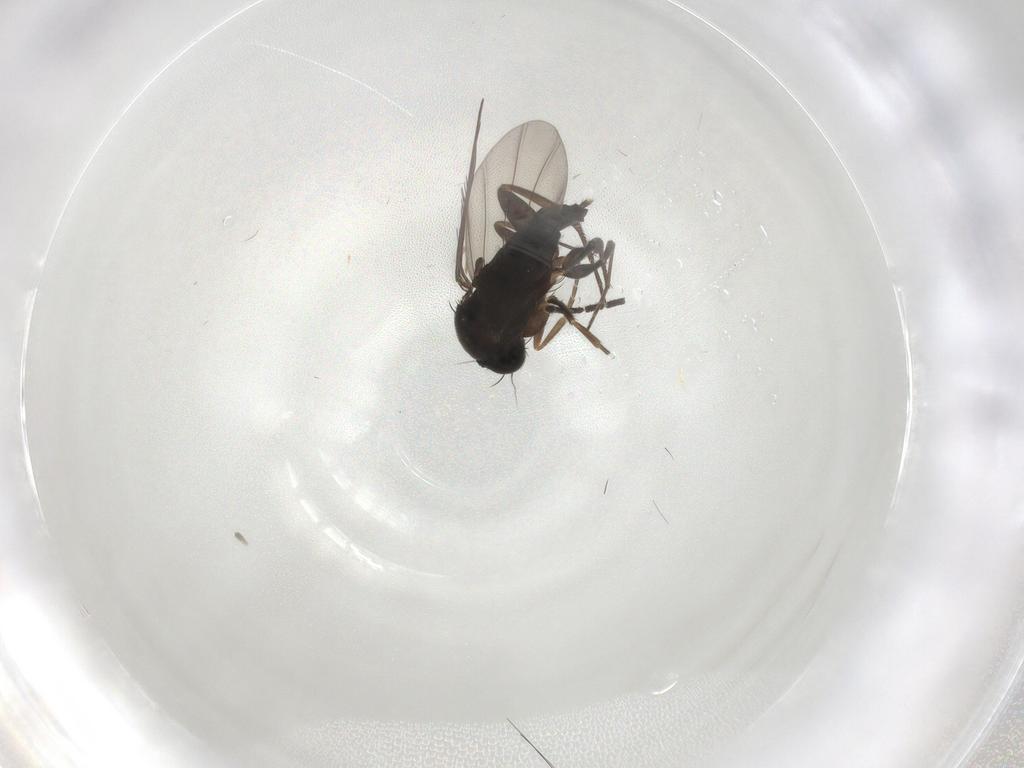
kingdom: Animalia
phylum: Arthropoda
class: Insecta
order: Diptera
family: Phoridae
